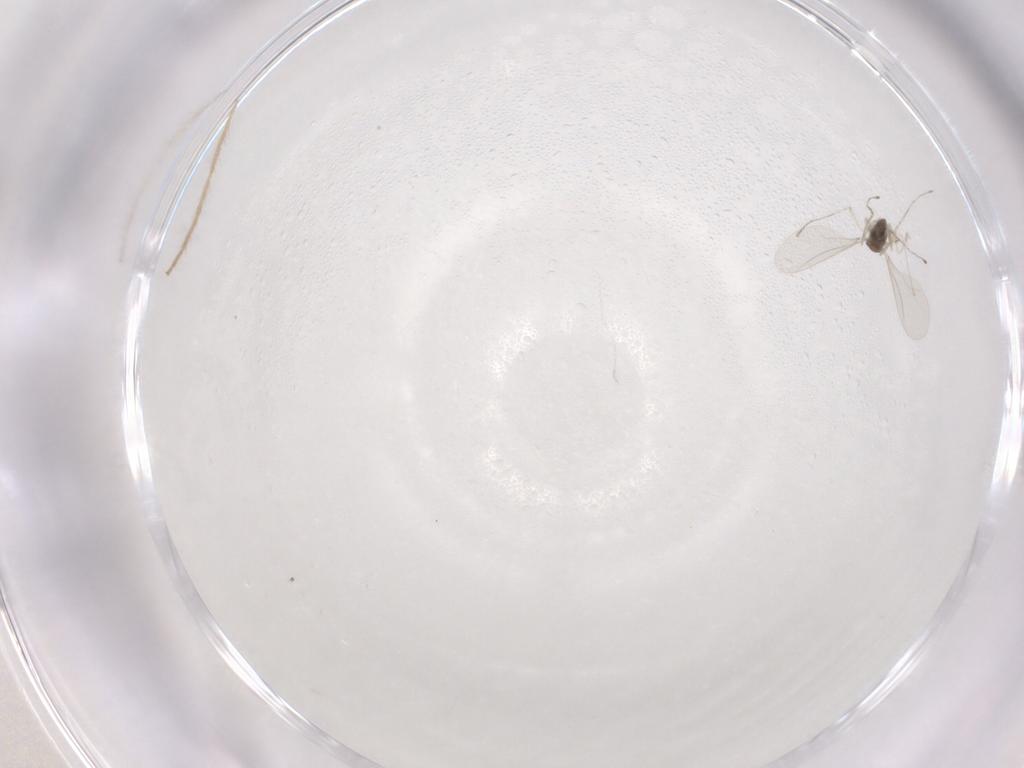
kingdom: Animalia
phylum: Arthropoda
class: Insecta
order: Diptera
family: Cecidomyiidae
